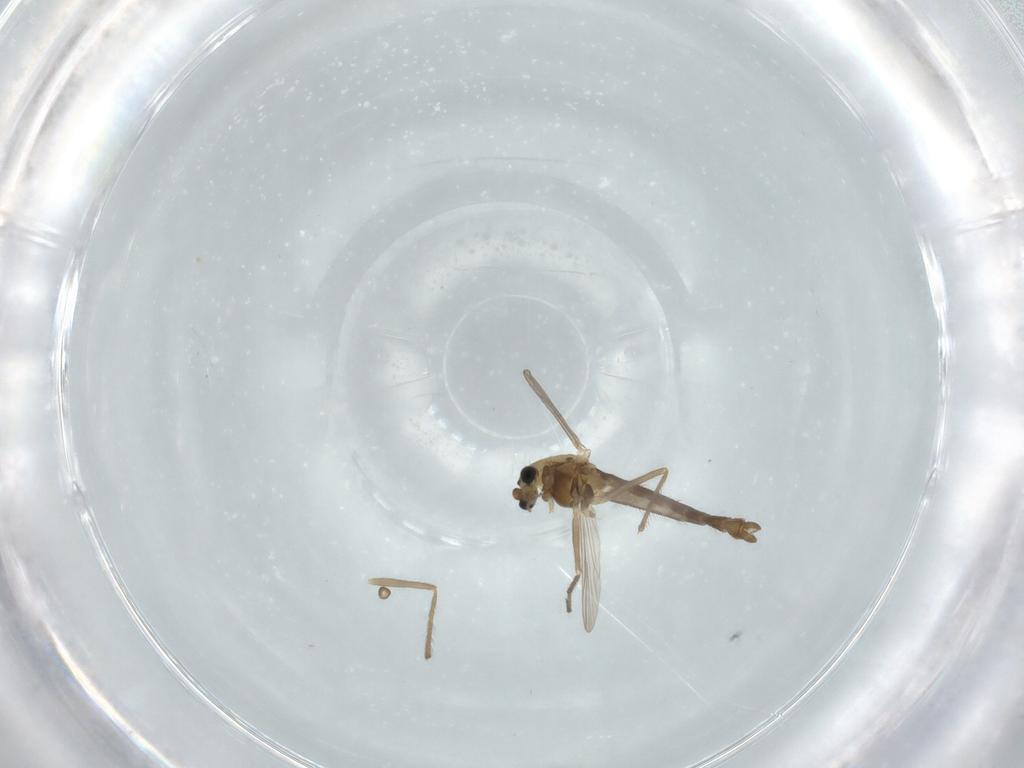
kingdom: Animalia
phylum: Arthropoda
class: Insecta
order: Diptera
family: Chironomidae
